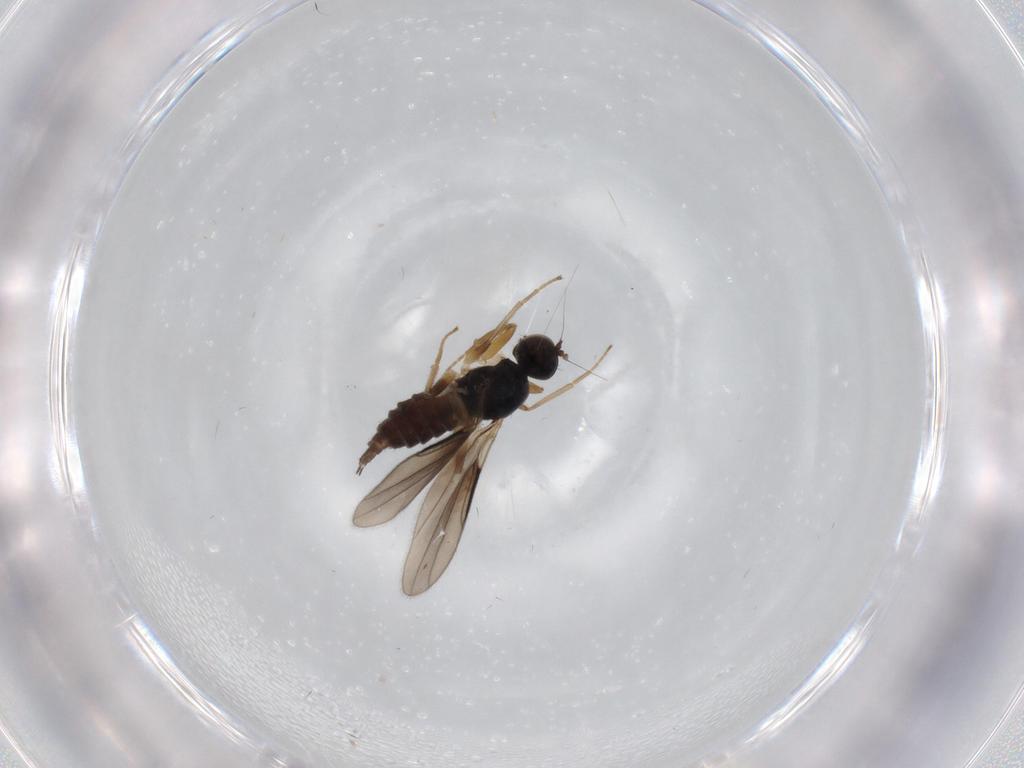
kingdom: Animalia
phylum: Arthropoda
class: Insecta
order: Diptera
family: Hybotidae
